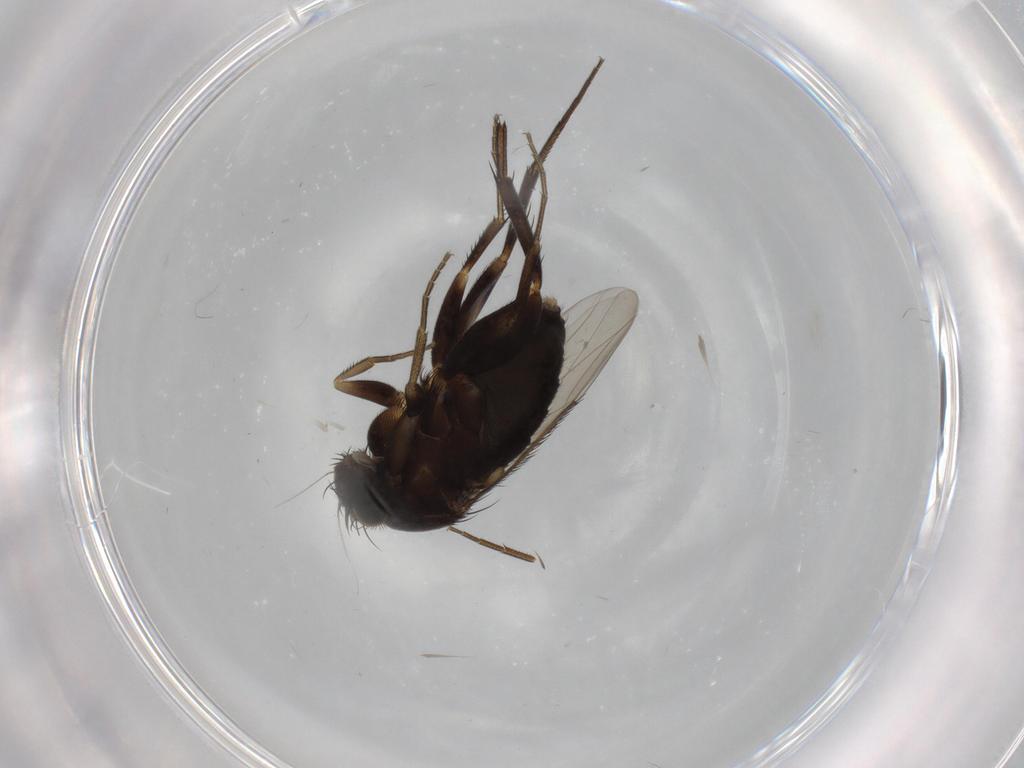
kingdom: Animalia
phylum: Arthropoda
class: Insecta
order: Diptera
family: Phoridae
